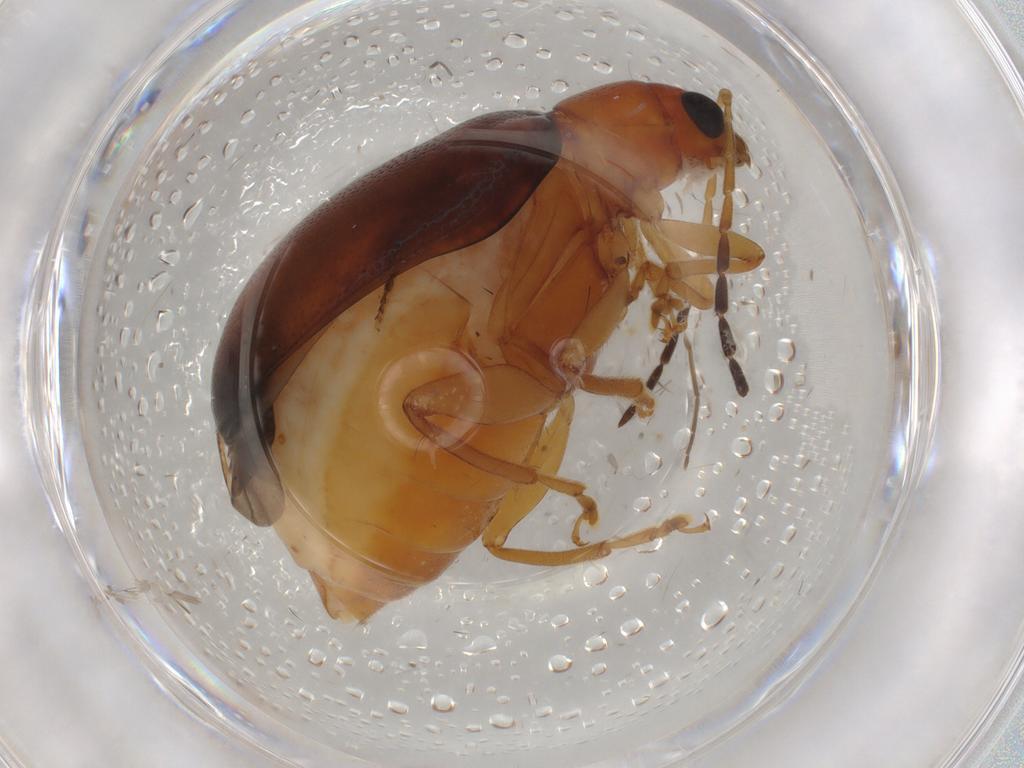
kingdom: Animalia
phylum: Arthropoda
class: Insecta
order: Coleoptera
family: Chrysomelidae
